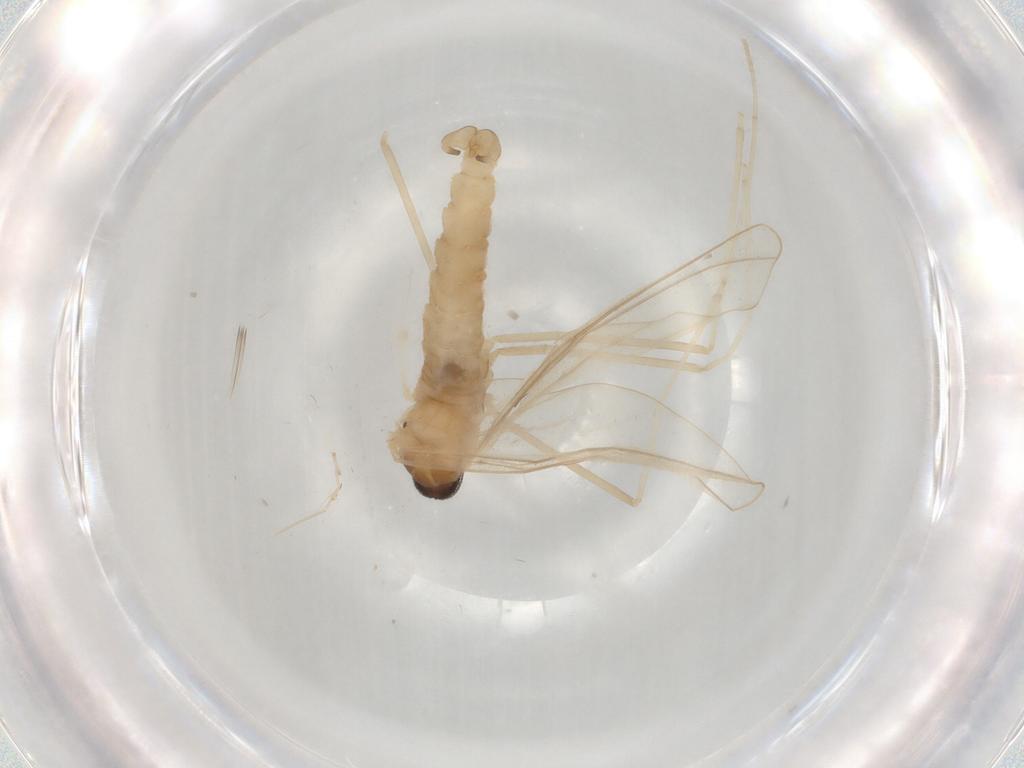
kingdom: Animalia
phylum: Arthropoda
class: Insecta
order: Diptera
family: Cecidomyiidae
